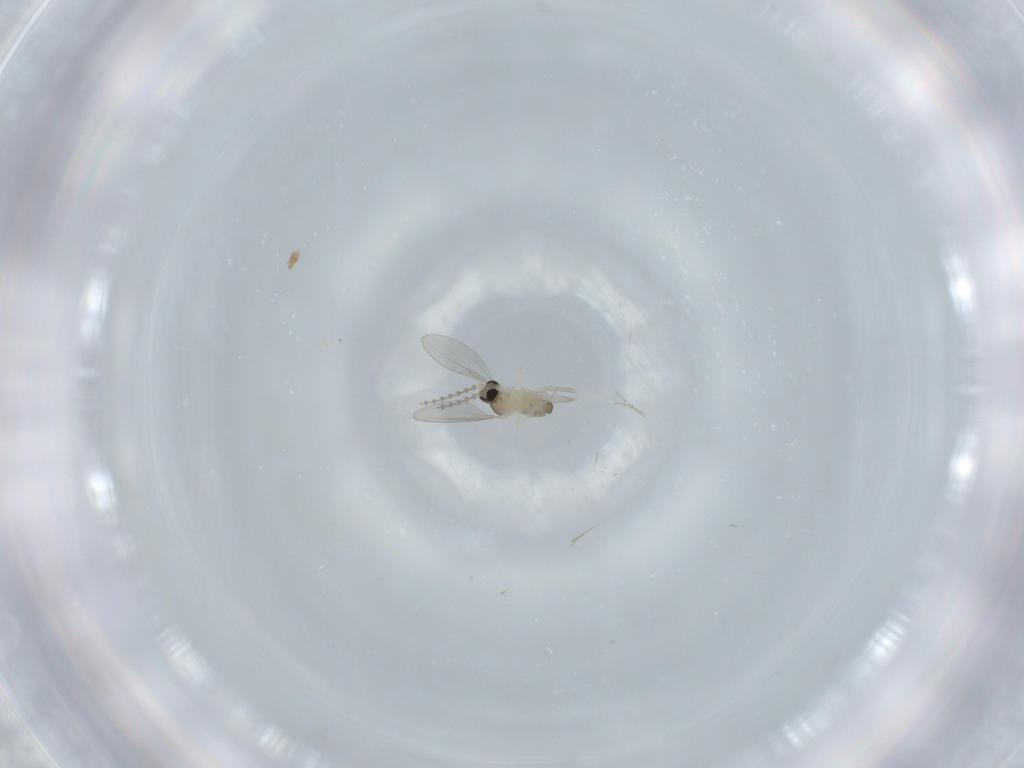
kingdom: Animalia
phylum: Arthropoda
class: Insecta
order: Diptera
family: Cecidomyiidae
